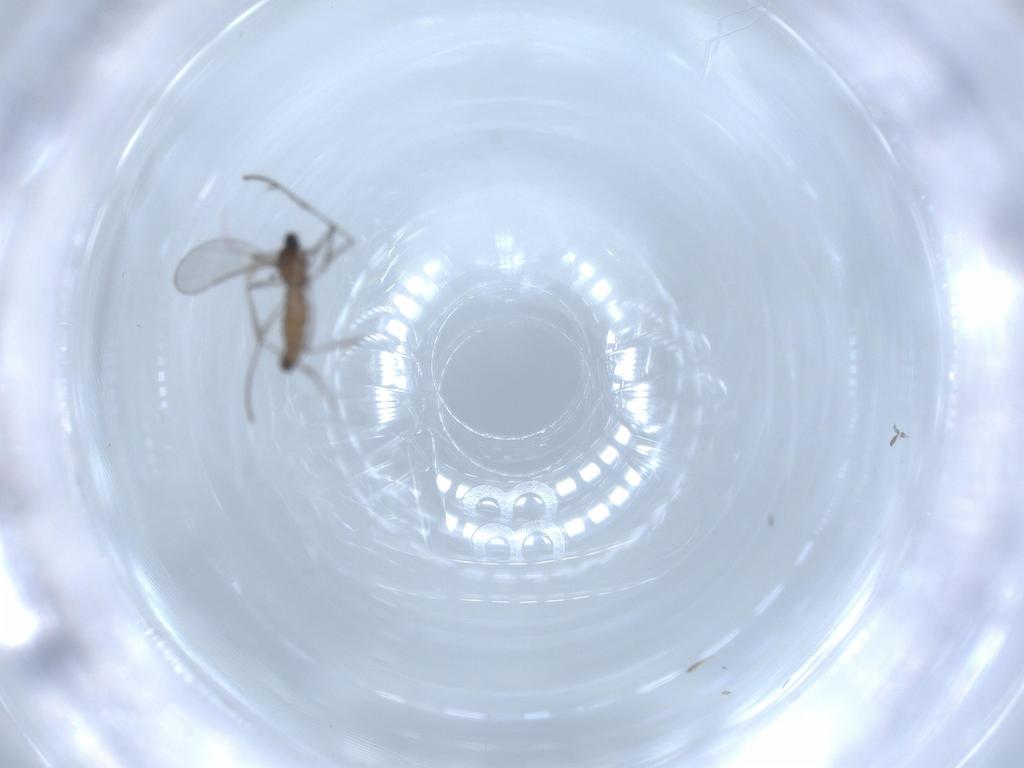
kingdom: Animalia
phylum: Arthropoda
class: Insecta
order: Diptera
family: Cecidomyiidae
